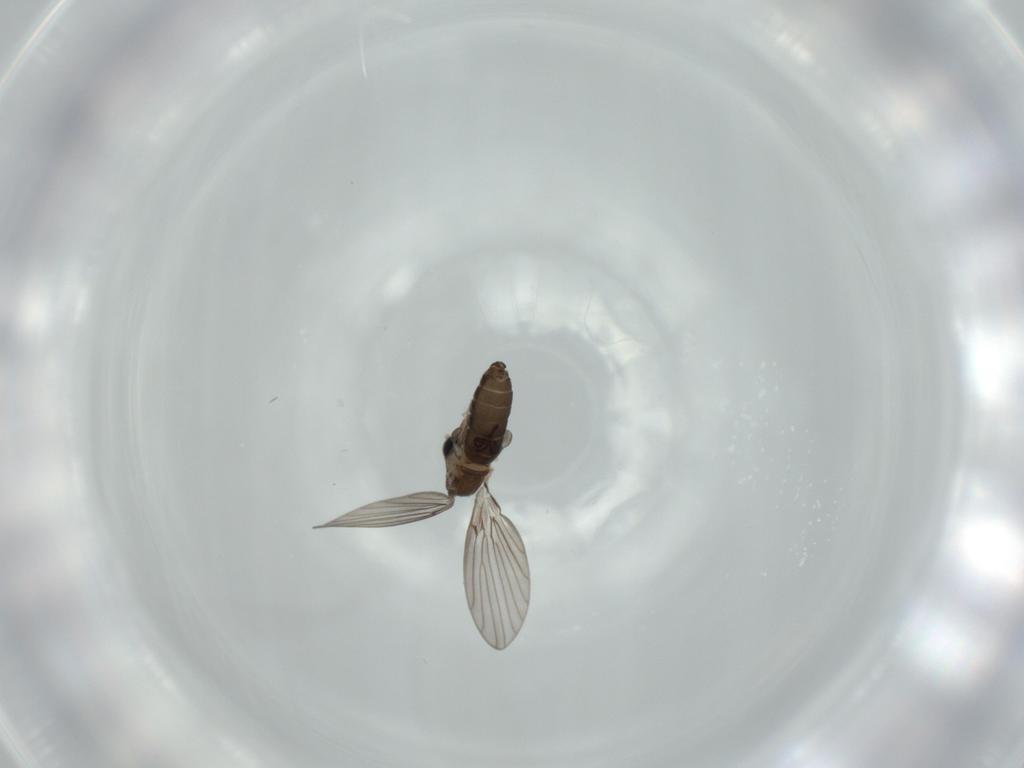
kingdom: Animalia
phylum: Arthropoda
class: Insecta
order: Diptera
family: Psychodidae
